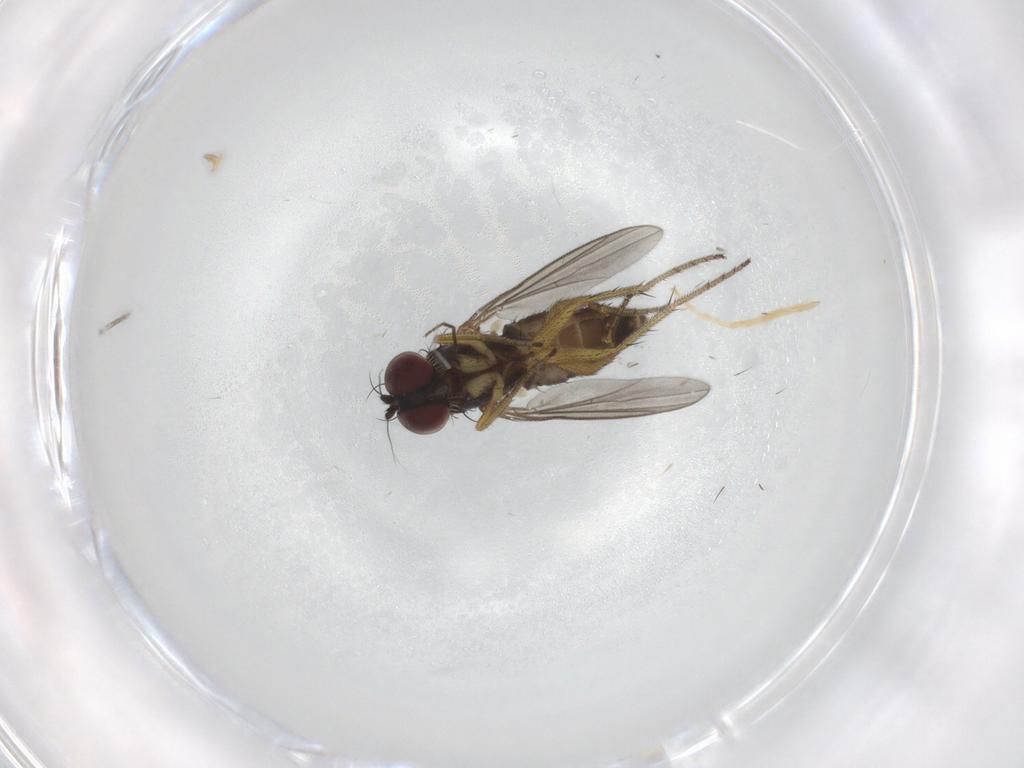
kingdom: Animalia
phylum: Arthropoda
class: Insecta
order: Diptera
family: Dolichopodidae
